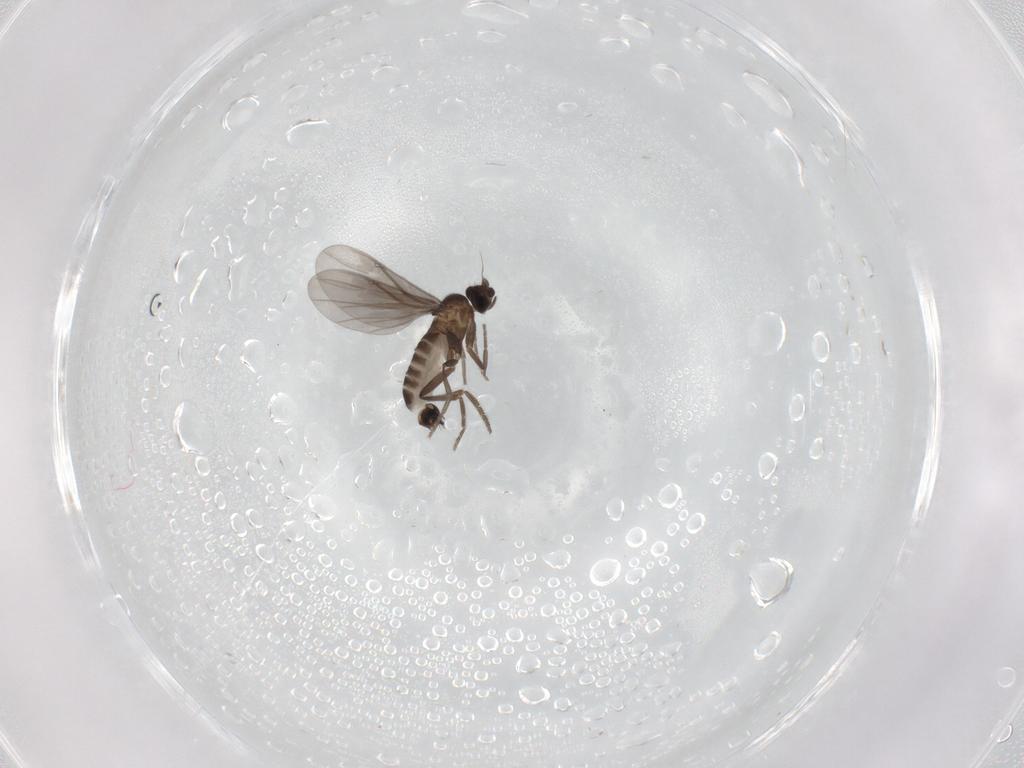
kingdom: Animalia
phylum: Arthropoda
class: Insecta
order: Diptera
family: Phoridae
